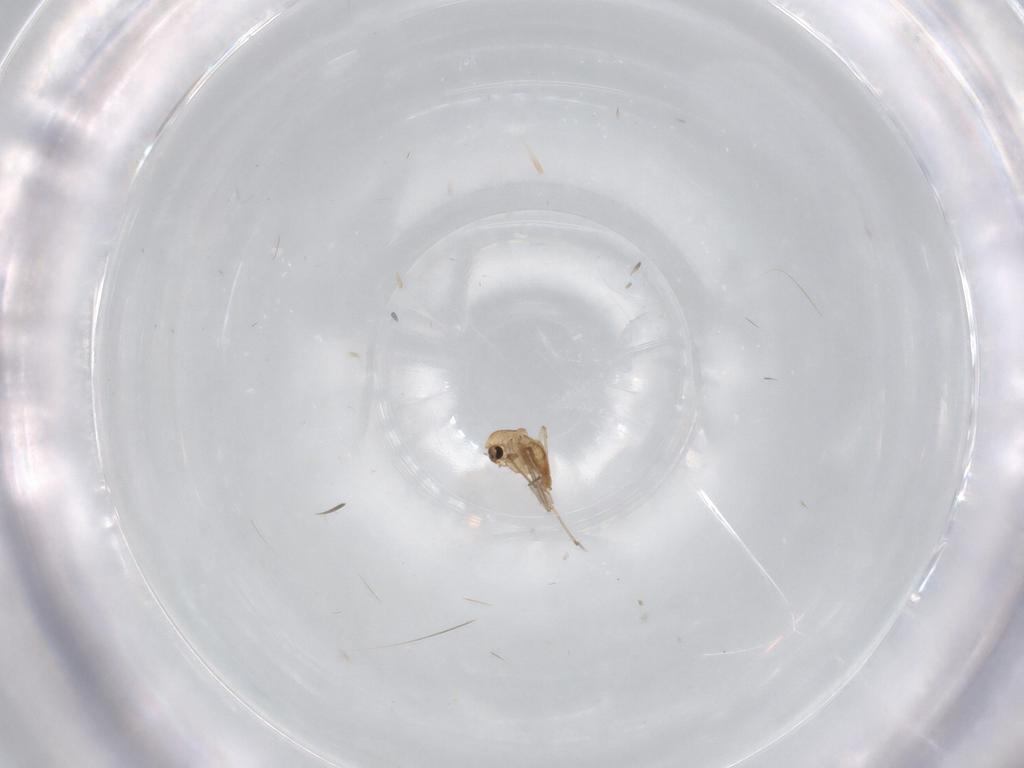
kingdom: Animalia
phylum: Arthropoda
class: Insecta
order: Diptera
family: Chironomidae
